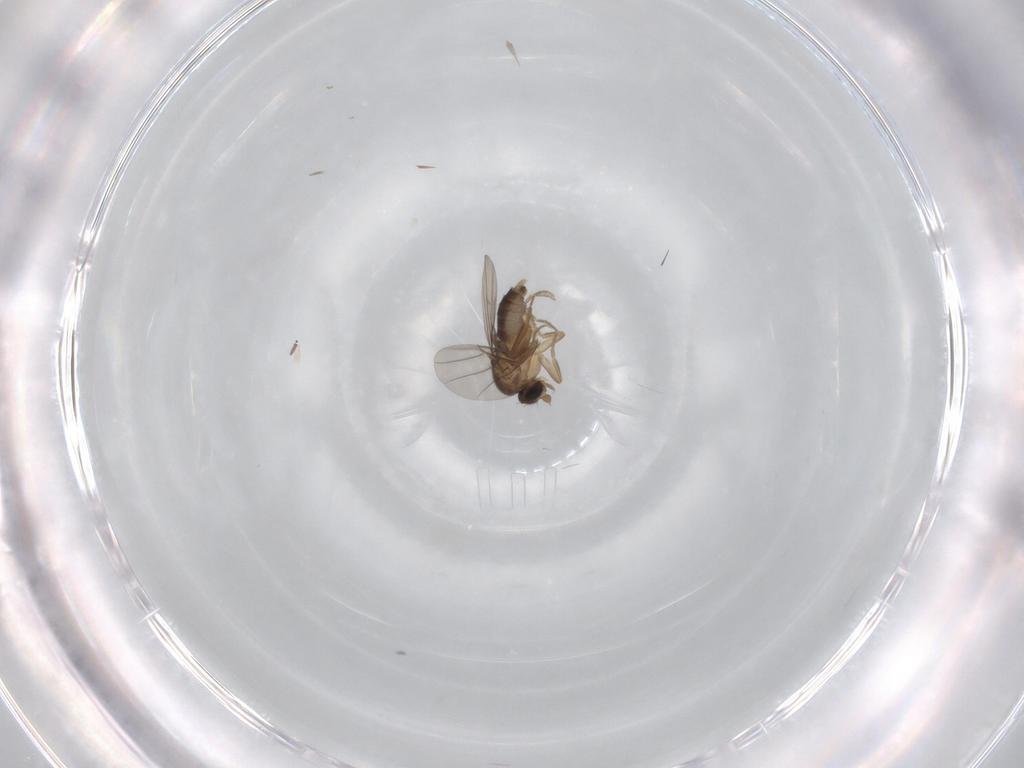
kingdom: Animalia
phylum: Arthropoda
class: Insecta
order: Diptera
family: Phoridae
